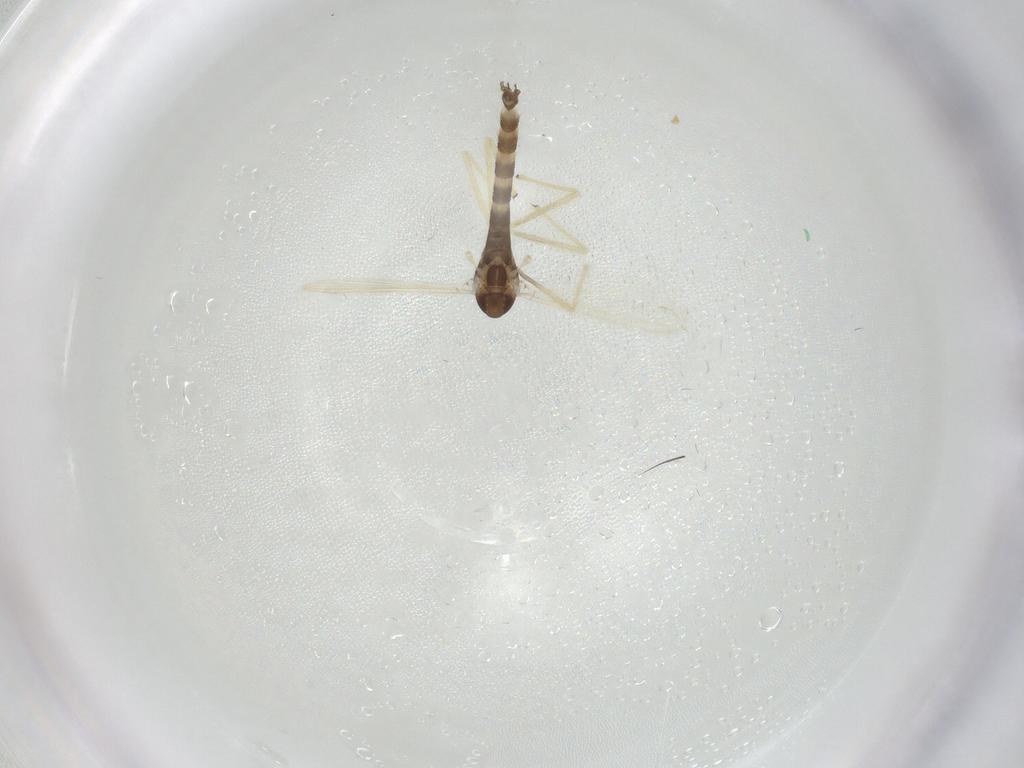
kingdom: Animalia
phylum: Arthropoda
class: Insecta
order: Diptera
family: Chironomidae
